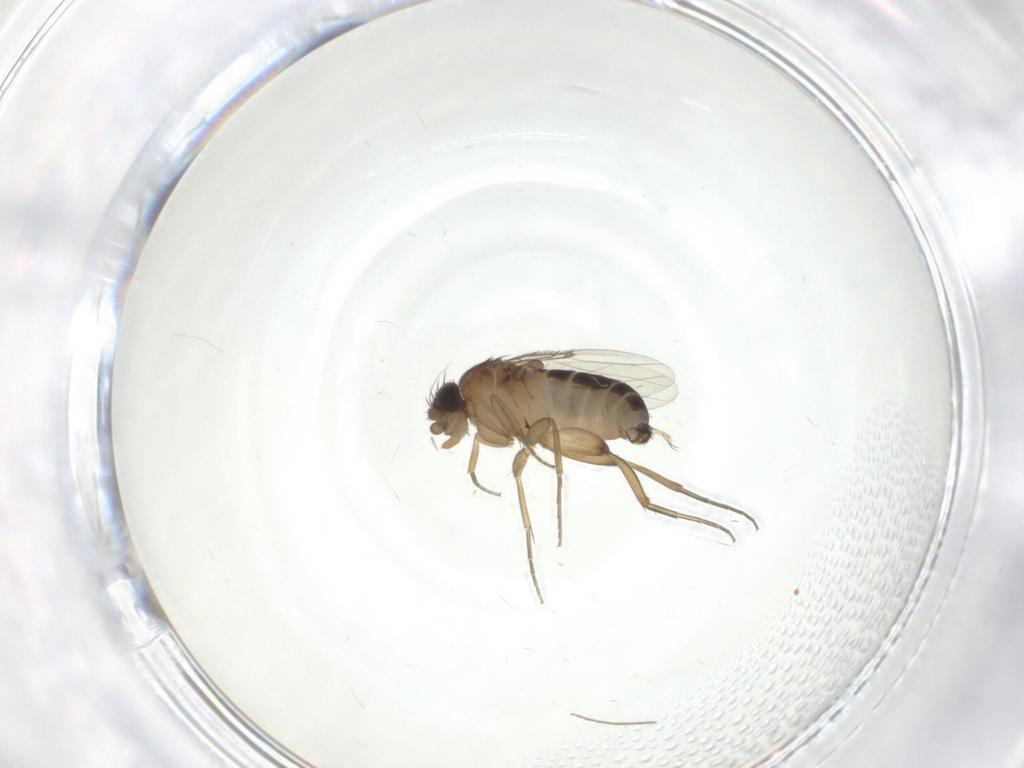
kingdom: Animalia
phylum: Arthropoda
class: Insecta
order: Diptera
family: Chironomidae
